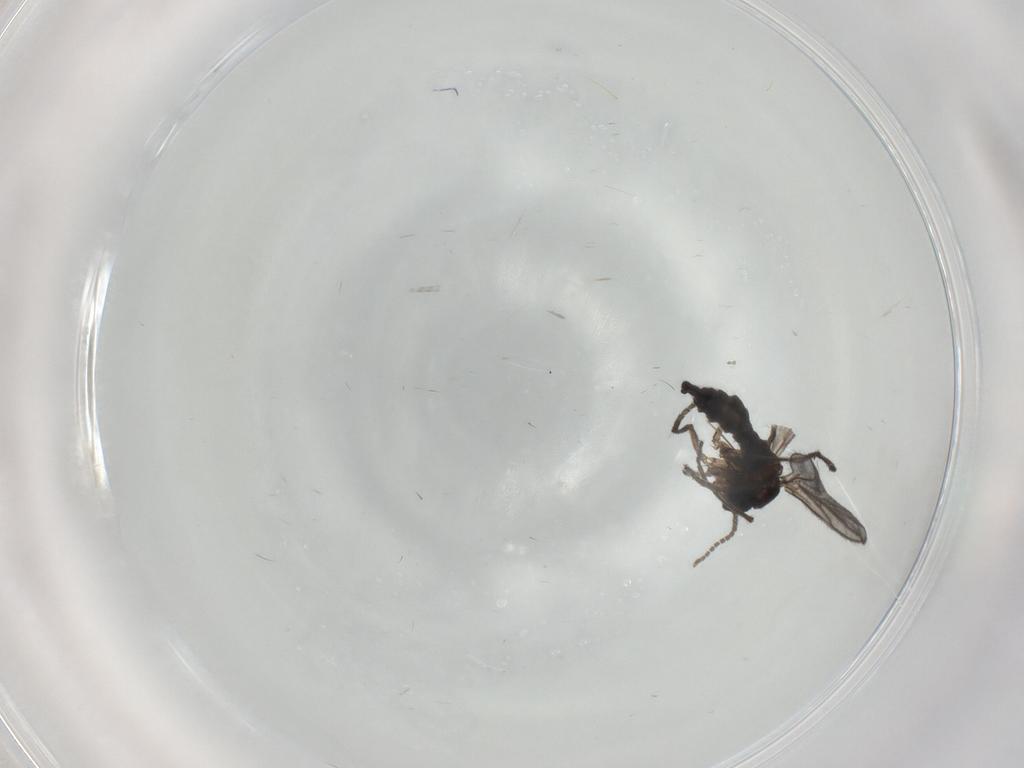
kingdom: Animalia
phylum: Arthropoda
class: Insecta
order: Diptera
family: Sciaridae
